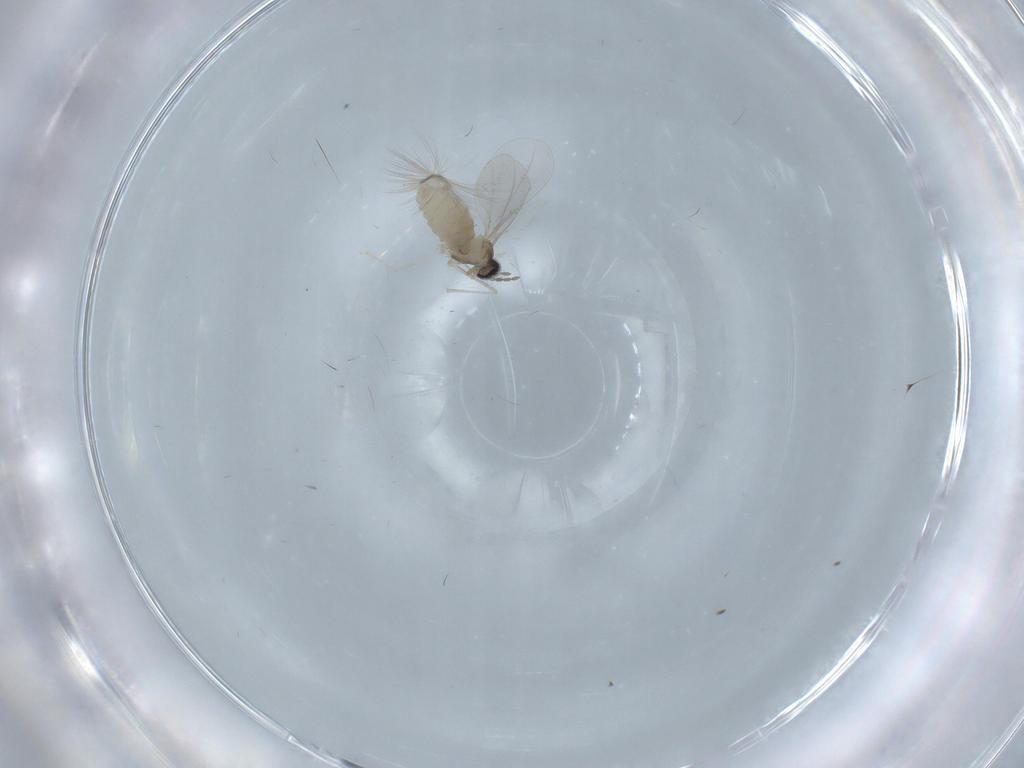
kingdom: Animalia
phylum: Arthropoda
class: Insecta
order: Diptera
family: Cecidomyiidae
